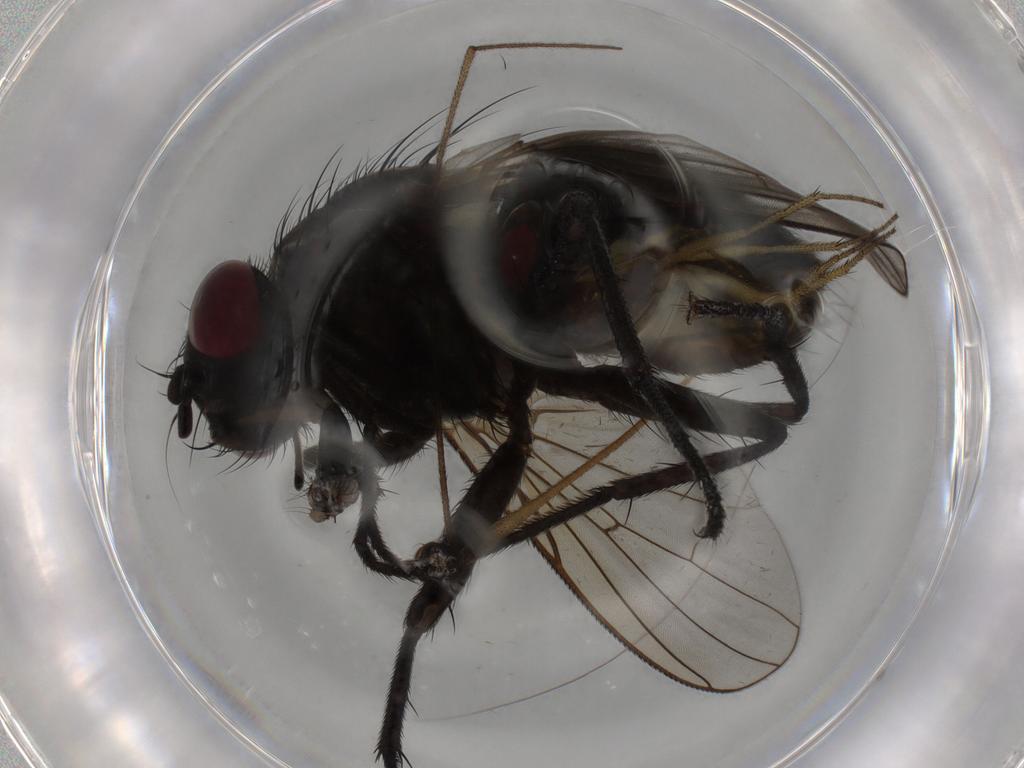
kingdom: Animalia
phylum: Arthropoda
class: Insecta
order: Diptera
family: Muscidae
